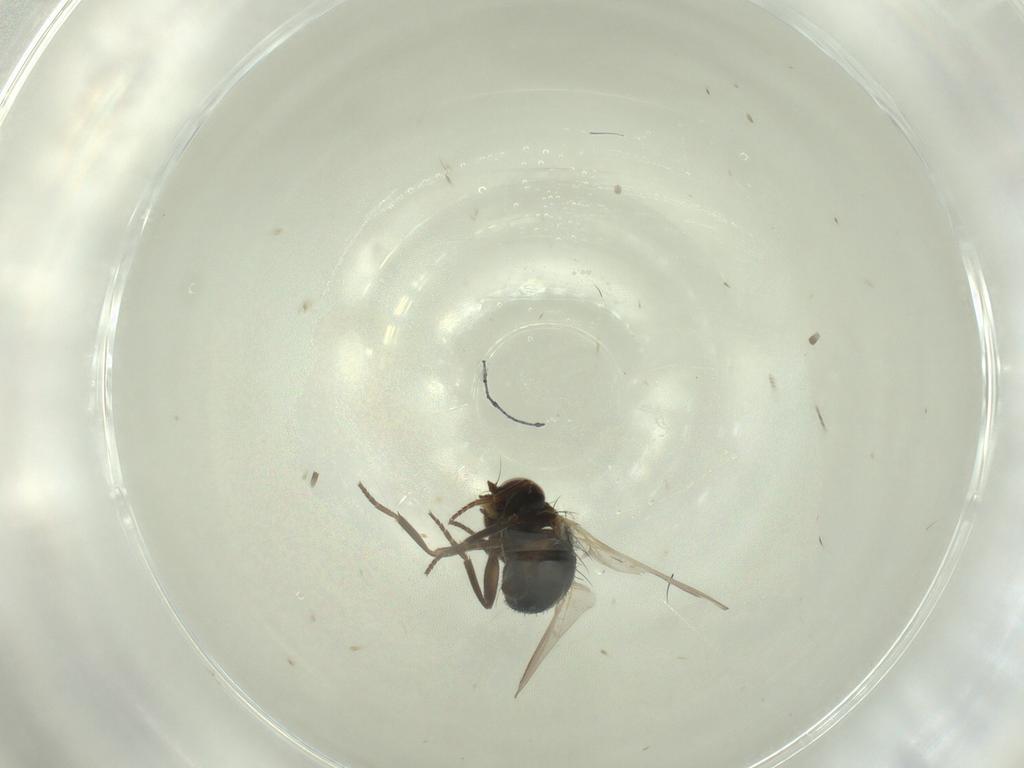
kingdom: Animalia
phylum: Arthropoda
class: Insecta
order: Diptera
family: Agromyzidae
